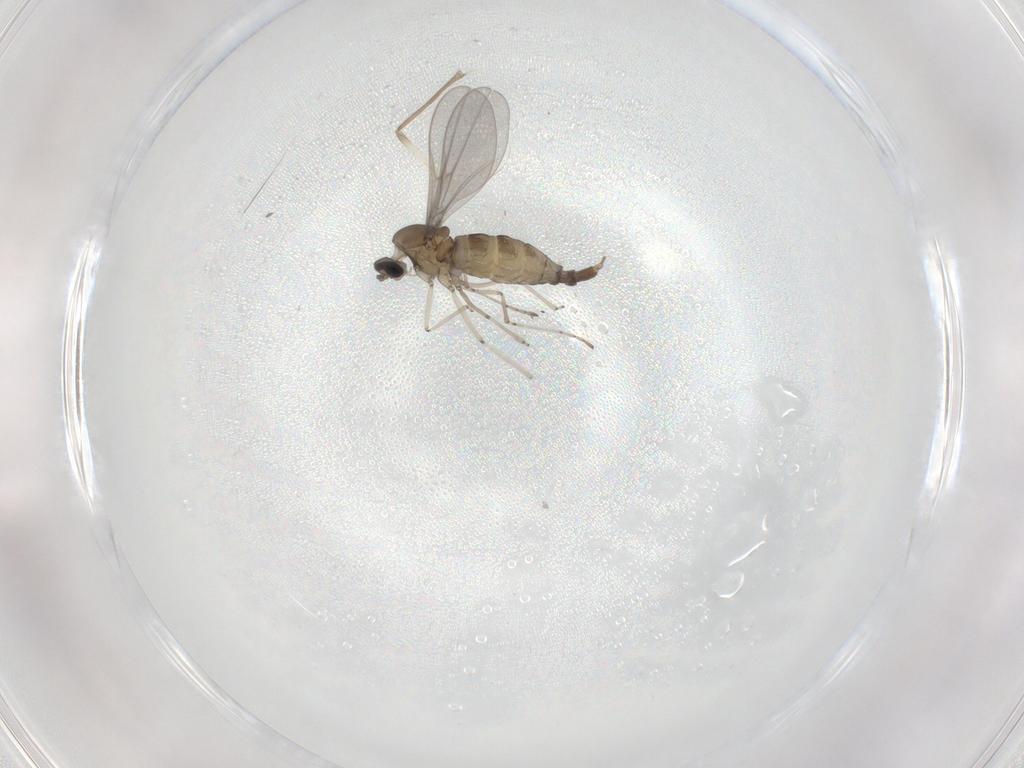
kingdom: Animalia
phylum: Arthropoda
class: Insecta
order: Diptera
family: Cecidomyiidae
